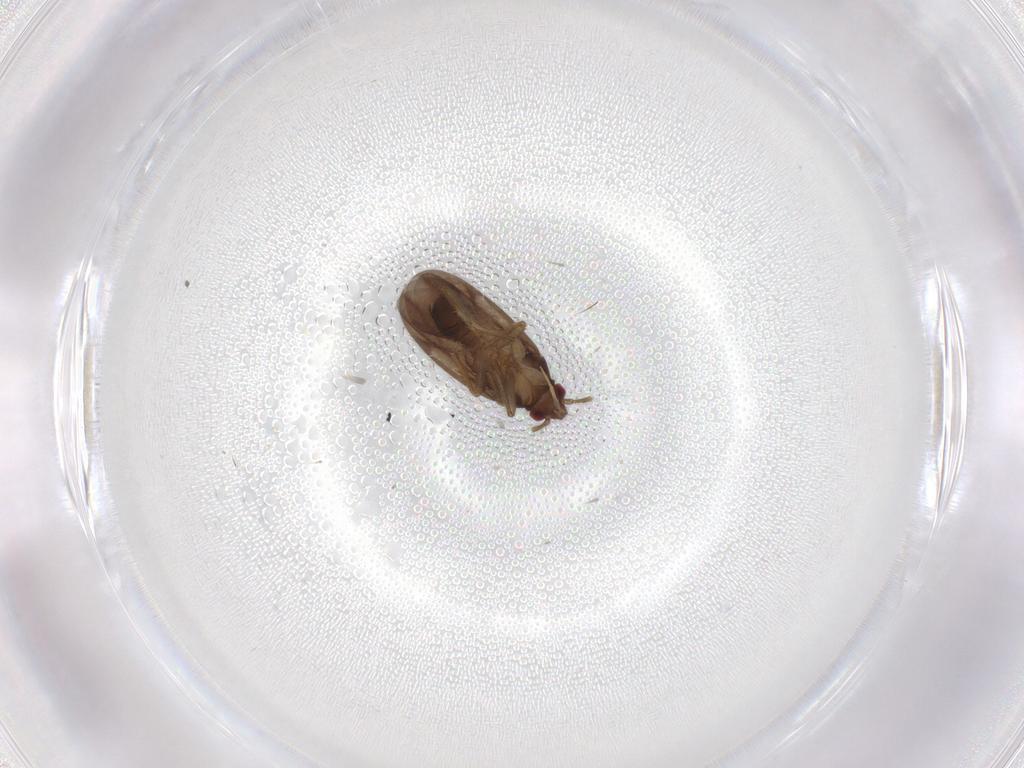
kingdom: Animalia
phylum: Arthropoda
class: Insecta
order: Hemiptera
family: Ceratocombidae
